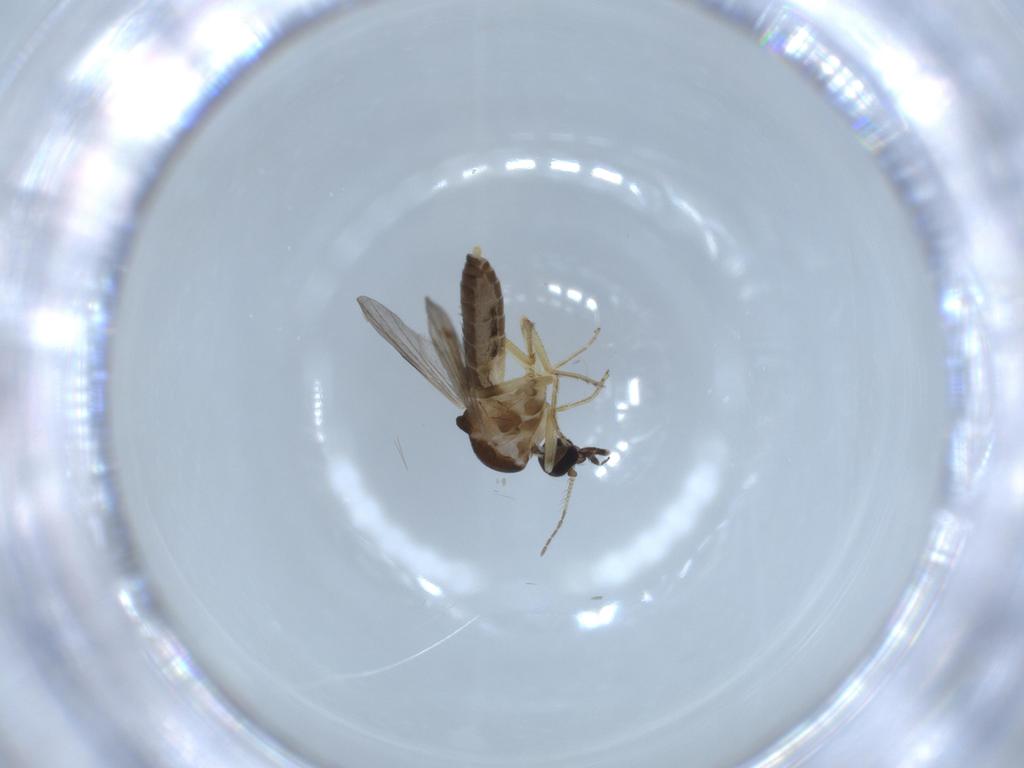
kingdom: Animalia
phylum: Arthropoda
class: Insecta
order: Diptera
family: Ceratopogonidae
